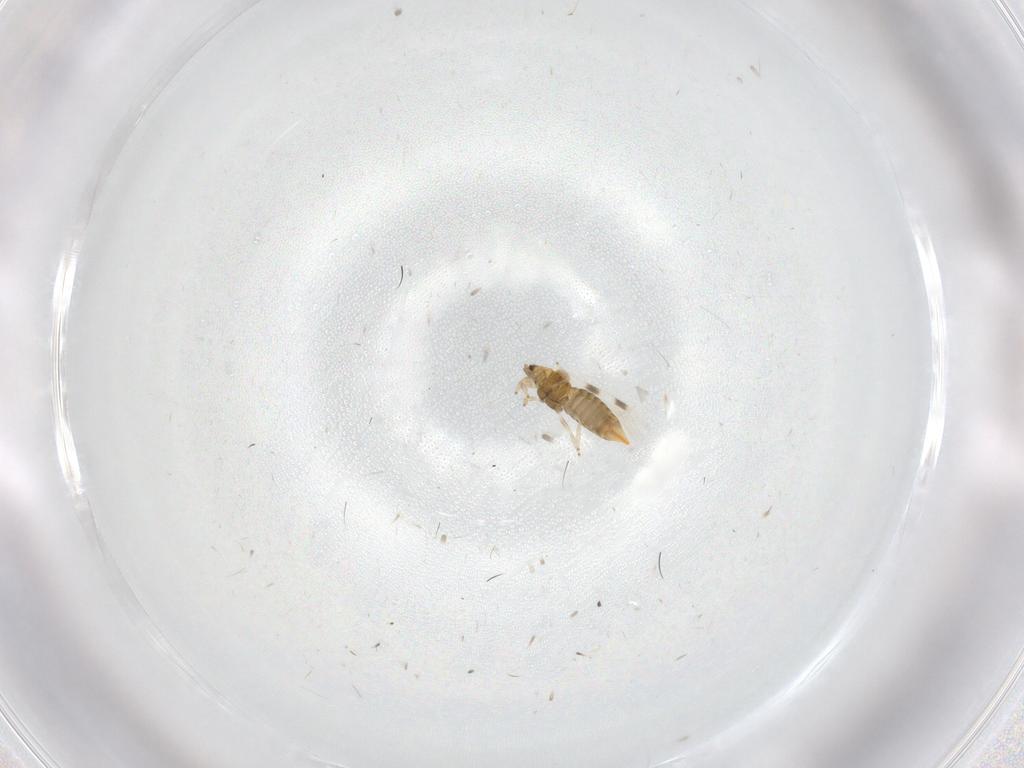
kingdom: Animalia
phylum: Arthropoda
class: Insecta
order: Thysanoptera
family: Thripidae
